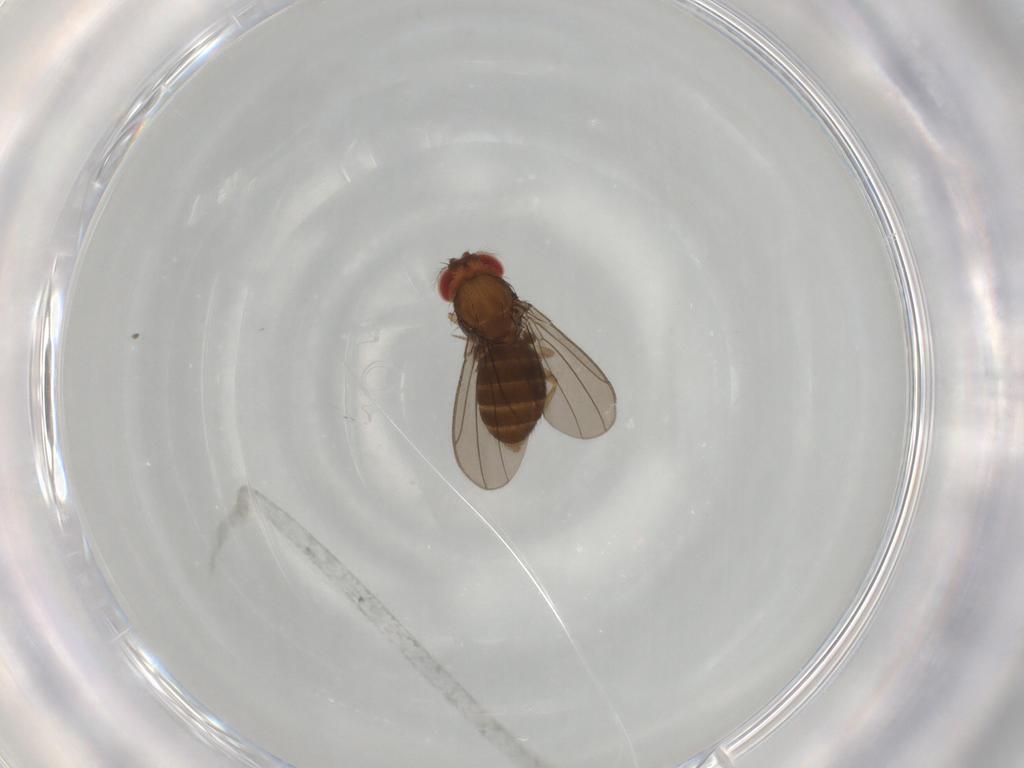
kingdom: Animalia
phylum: Arthropoda
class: Insecta
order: Diptera
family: Drosophilidae
